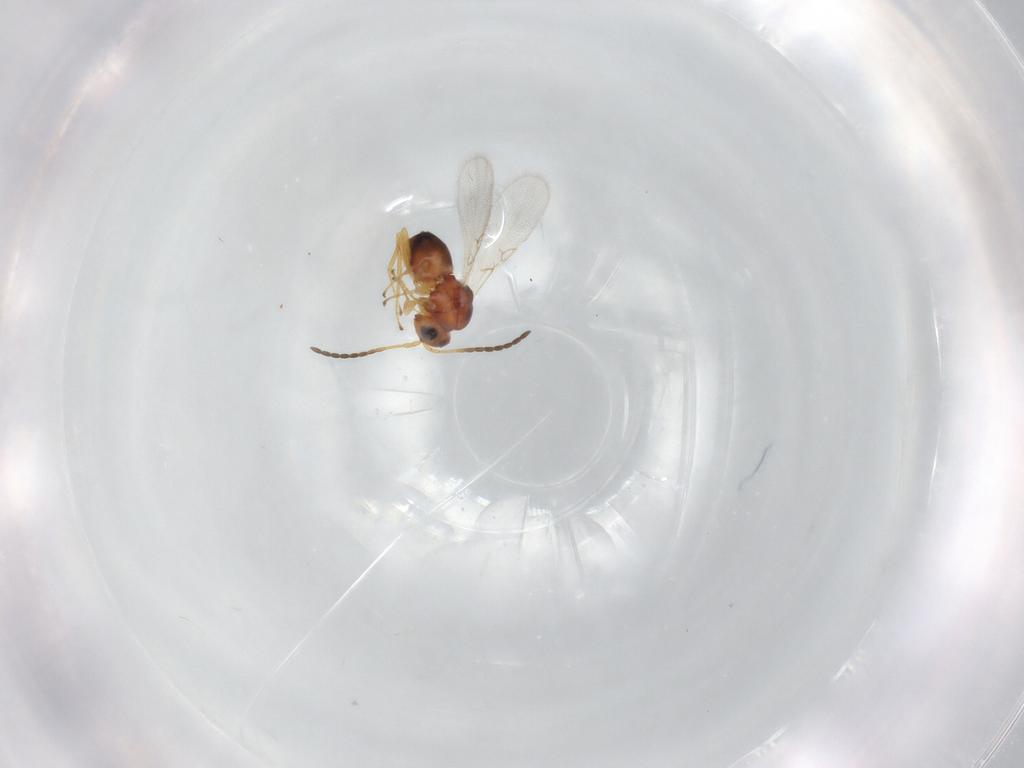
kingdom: Animalia
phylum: Arthropoda
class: Insecta
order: Hymenoptera
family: Figitidae
